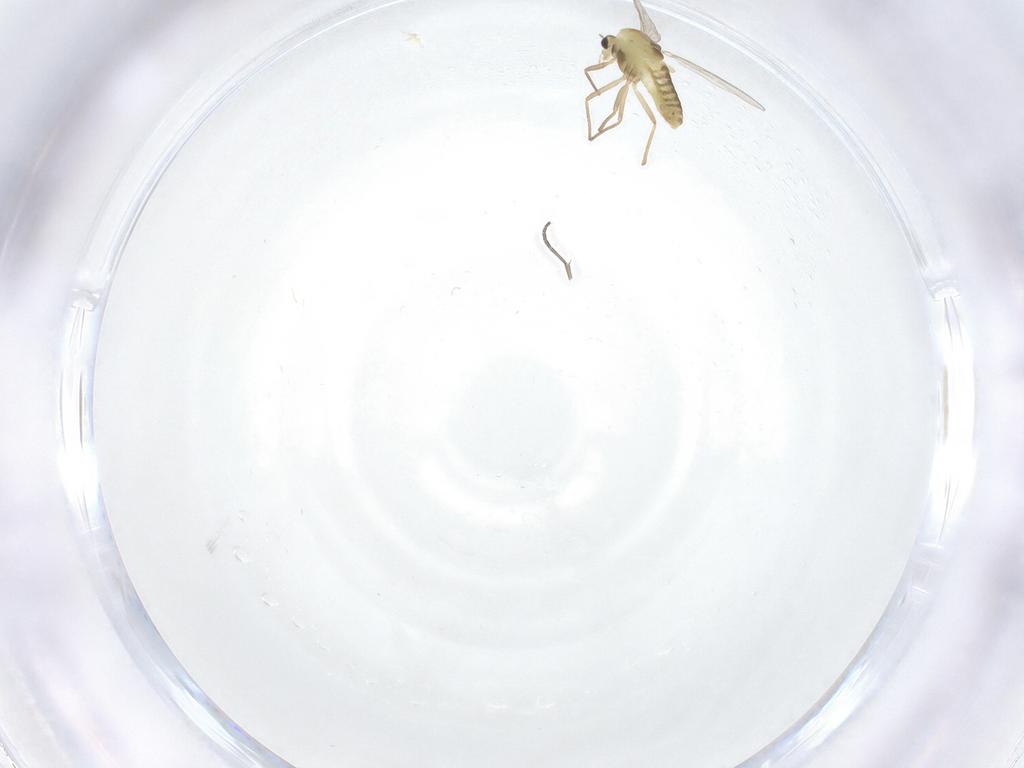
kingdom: Animalia
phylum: Arthropoda
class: Insecta
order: Diptera
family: Chironomidae
